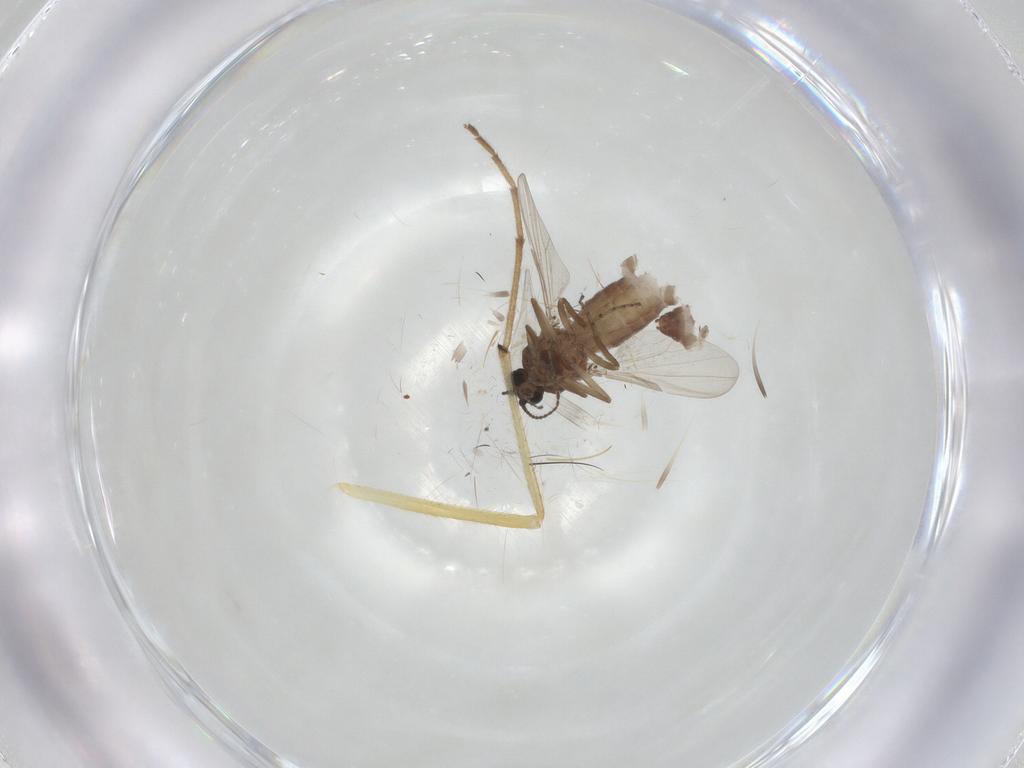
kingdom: Animalia
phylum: Arthropoda
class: Insecta
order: Diptera
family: Ceratopogonidae
